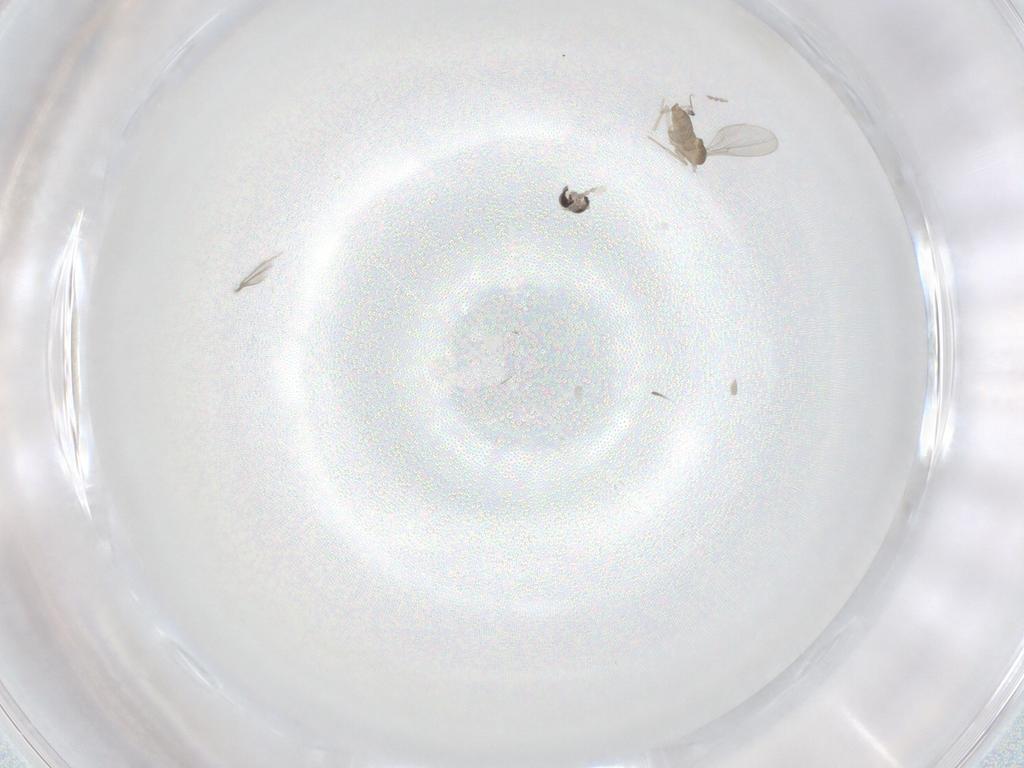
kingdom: Animalia
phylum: Arthropoda
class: Insecta
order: Diptera
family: Cecidomyiidae
